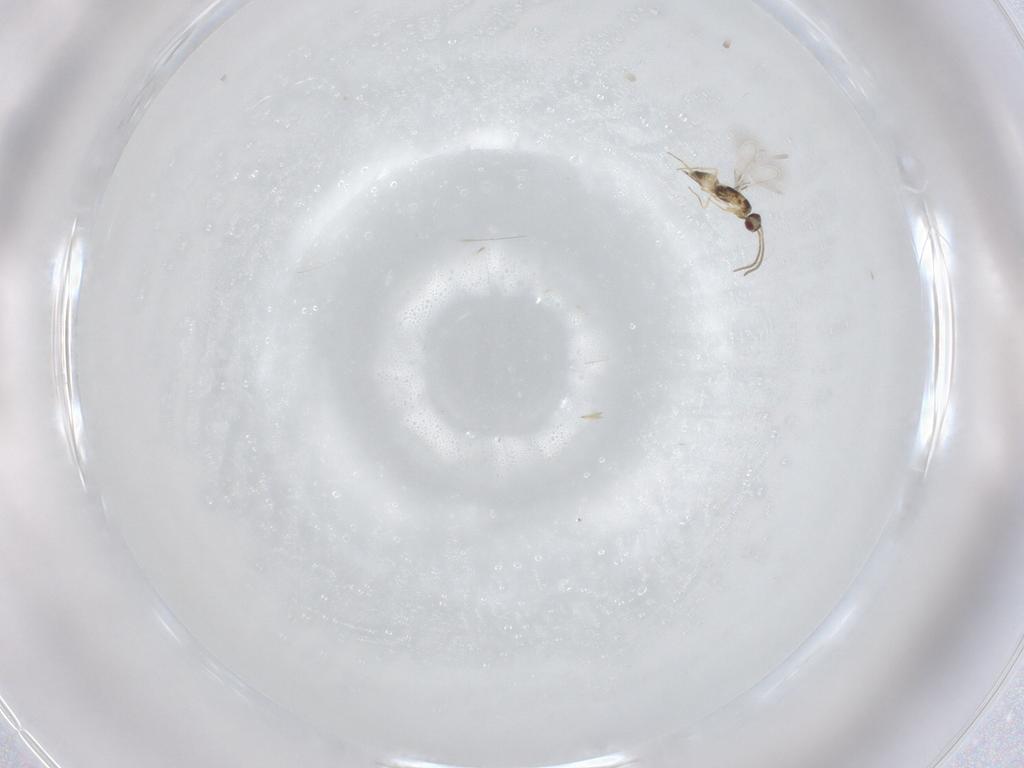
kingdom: Animalia
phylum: Arthropoda
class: Insecta
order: Hymenoptera
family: Mymaridae
